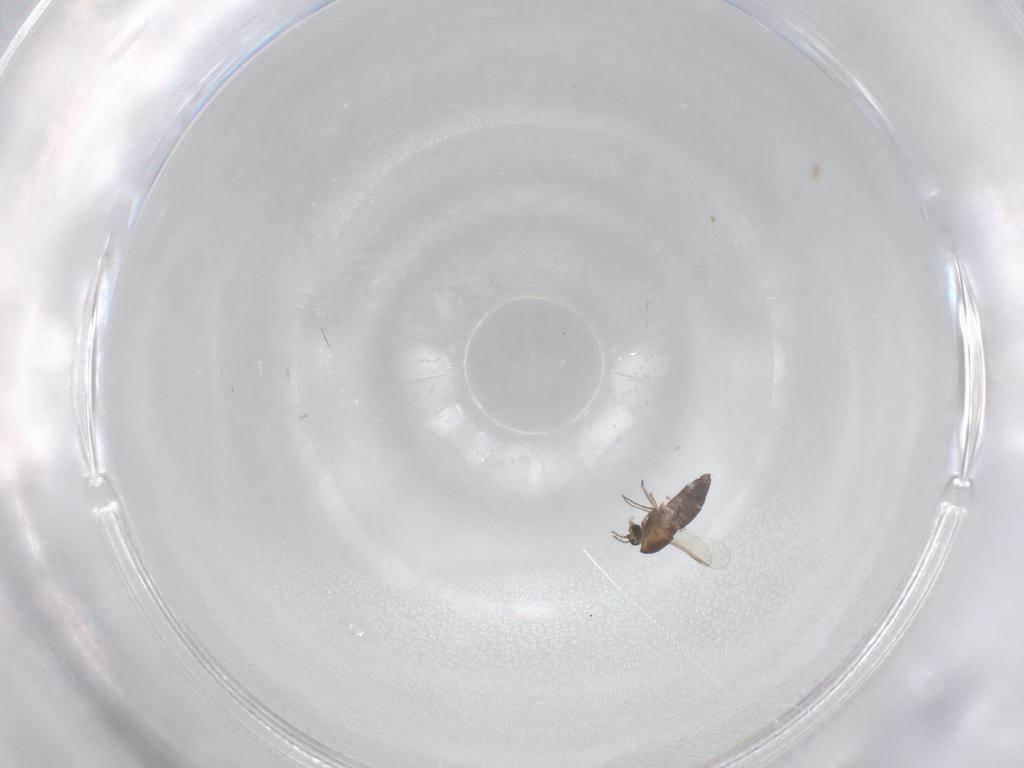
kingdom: Animalia
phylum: Arthropoda
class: Insecta
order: Diptera
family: Chironomidae
